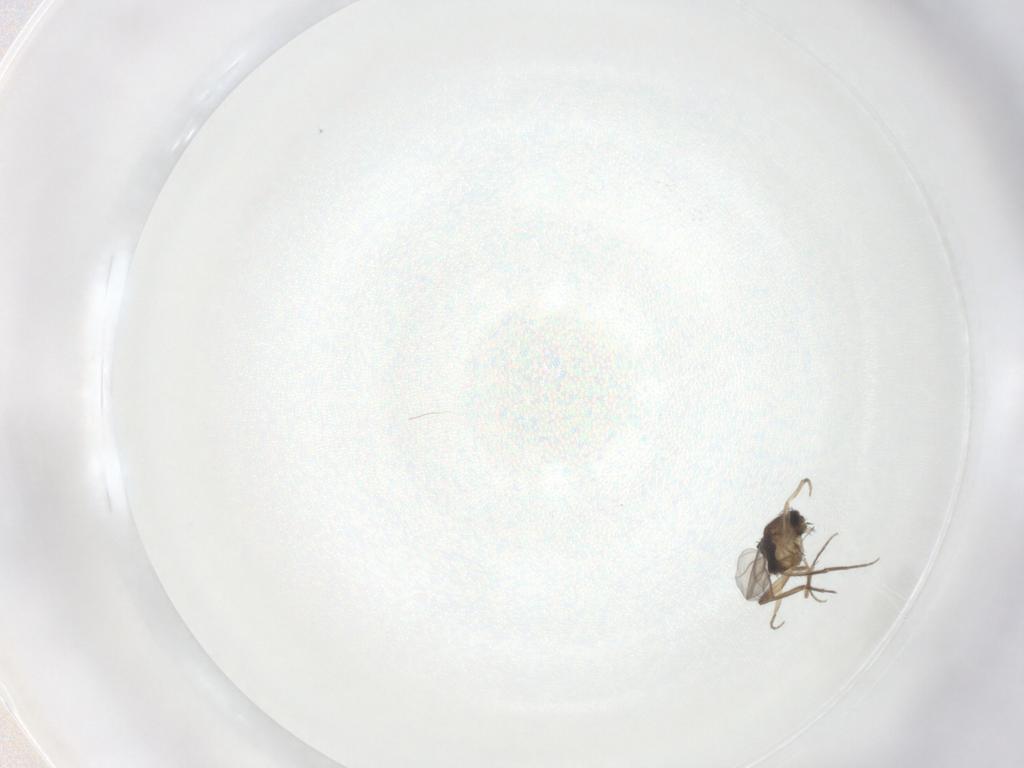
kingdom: Animalia
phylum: Arthropoda
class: Insecta
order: Diptera
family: Phoridae
